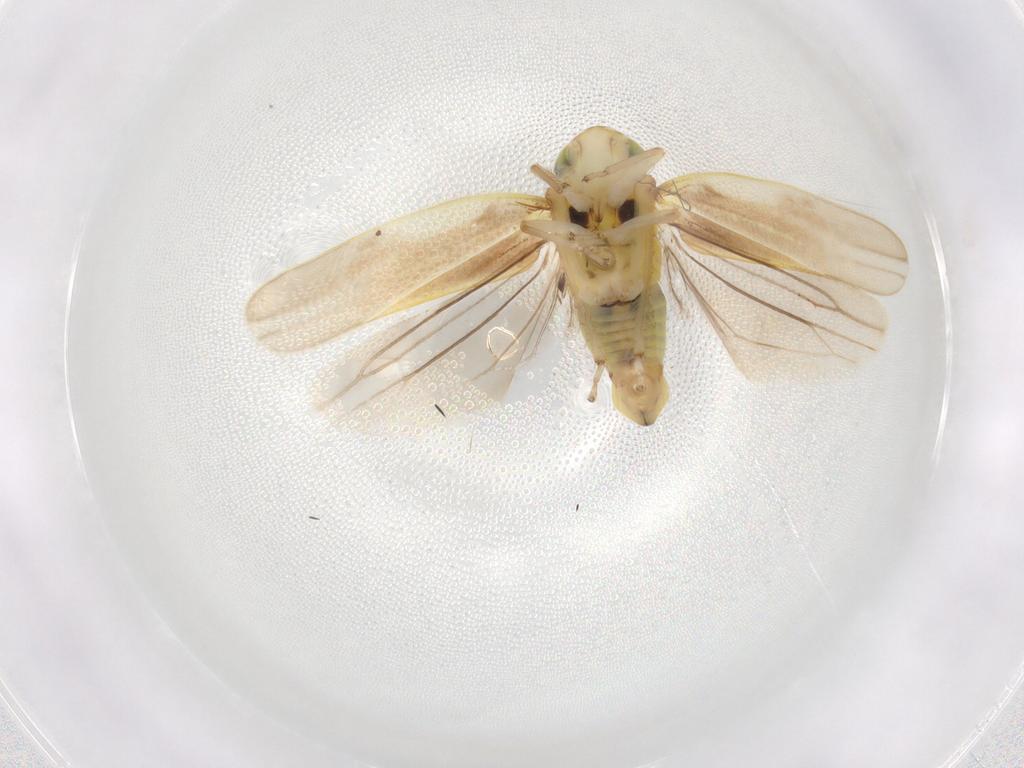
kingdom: Animalia
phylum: Arthropoda
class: Insecta
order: Hemiptera
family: Cicadellidae
